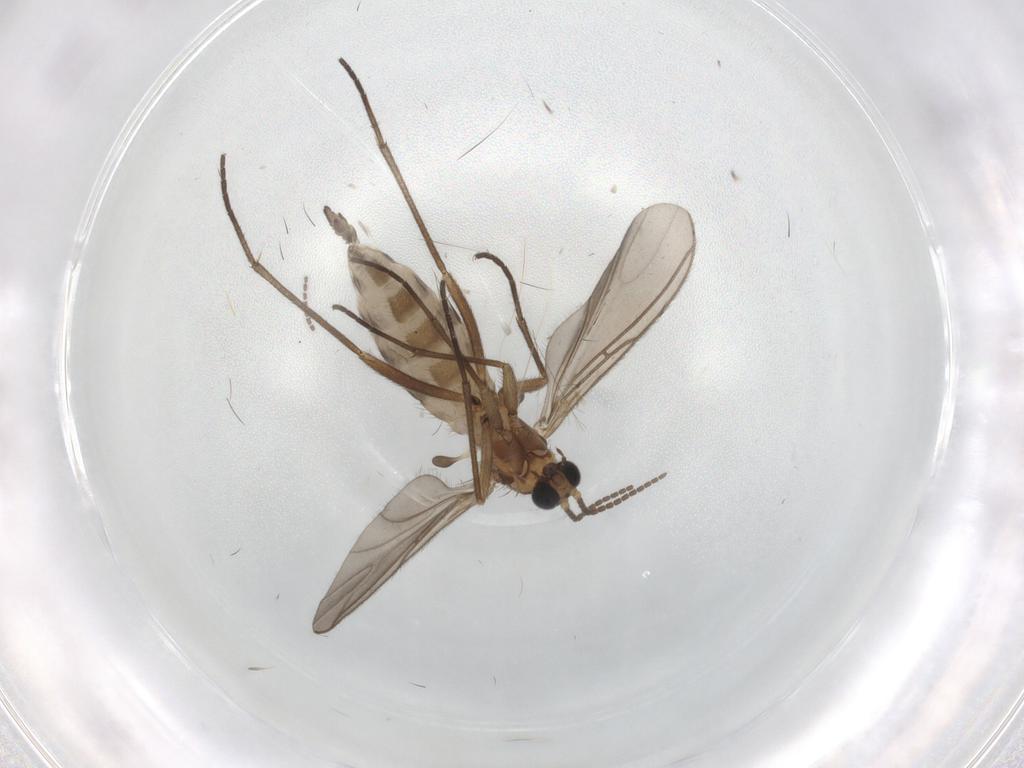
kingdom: Animalia
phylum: Arthropoda
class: Insecta
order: Diptera
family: Sciaridae
